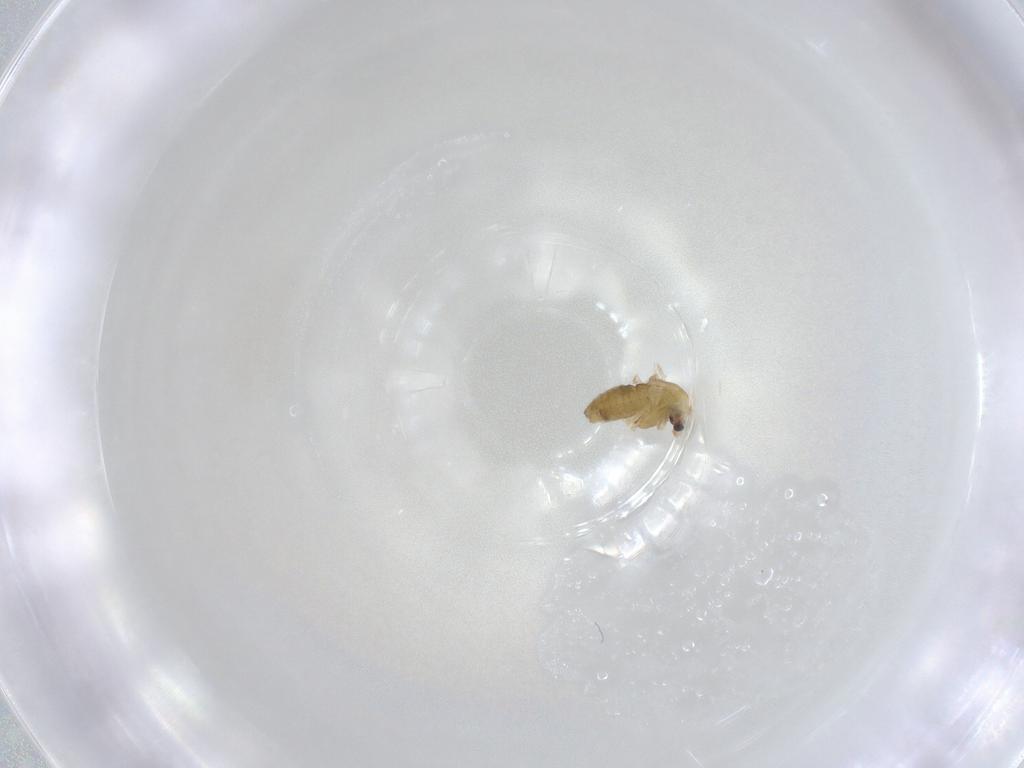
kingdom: Animalia
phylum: Arthropoda
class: Insecta
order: Diptera
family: Chironomidae
